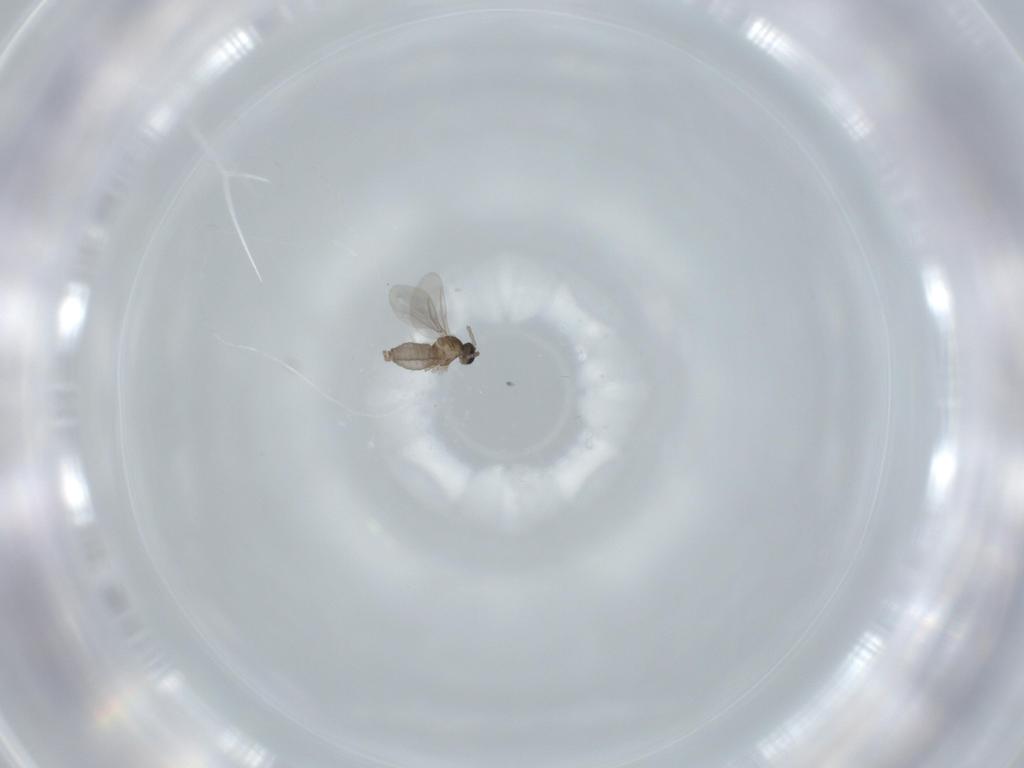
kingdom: Animalia
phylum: Arthropoda
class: Insecta
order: Diptera
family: Cecidomyiidae
